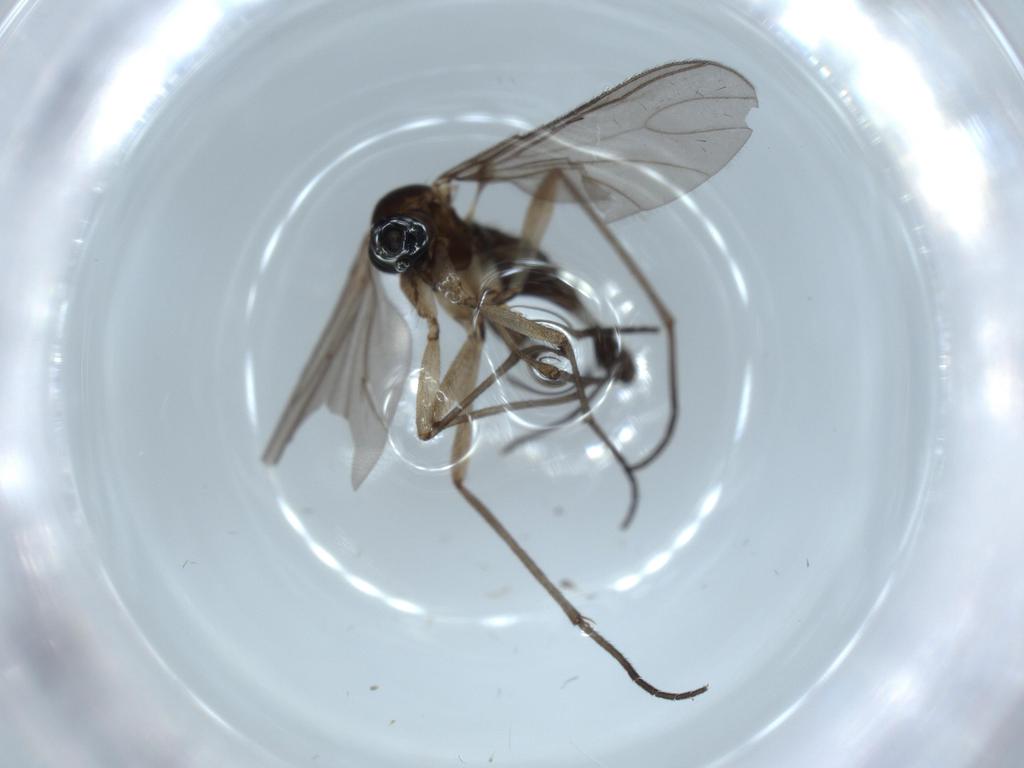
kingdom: Animalia
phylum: Arthropoda
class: Insecta
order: Diptera
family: Sciaridae
